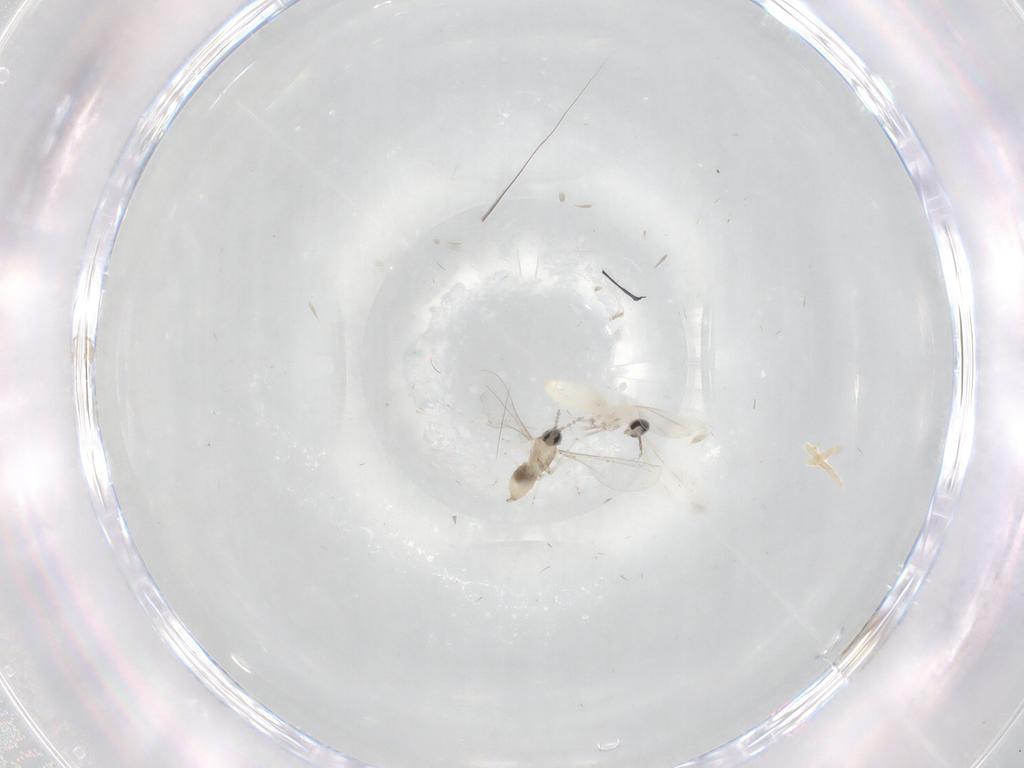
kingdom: Animalia
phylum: Arthropoda
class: Insecta
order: Diptera
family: Cecidomyiidae
